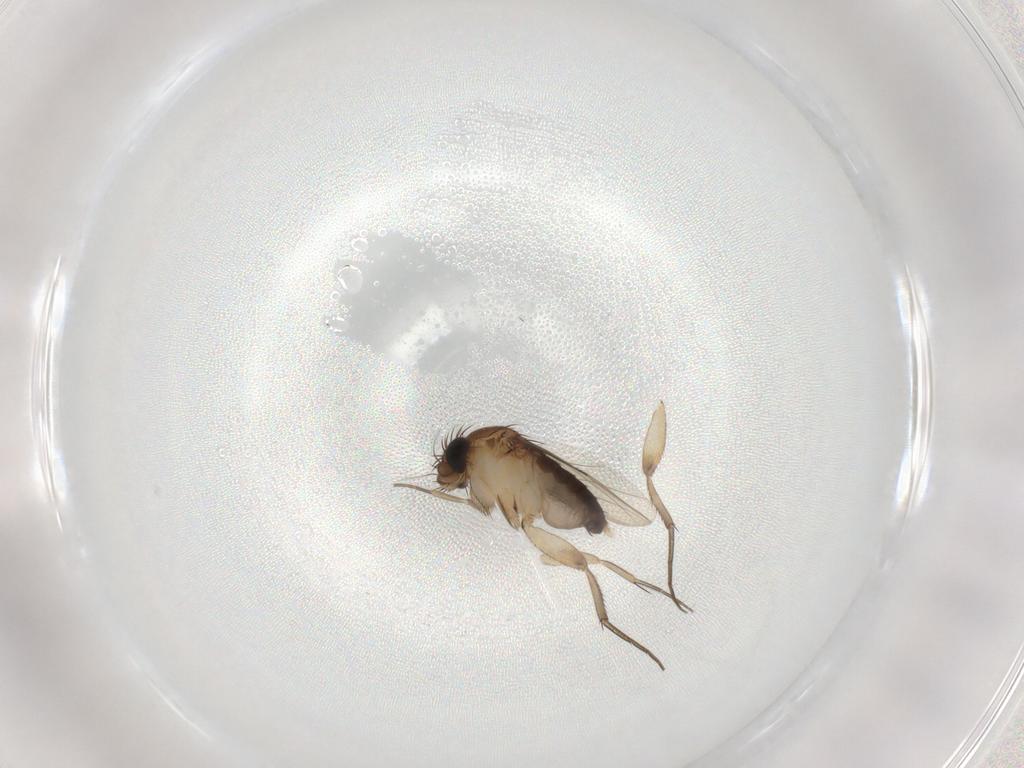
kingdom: Animalia
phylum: Arthropoda
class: Insecta
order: Diptera
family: Phoridae
